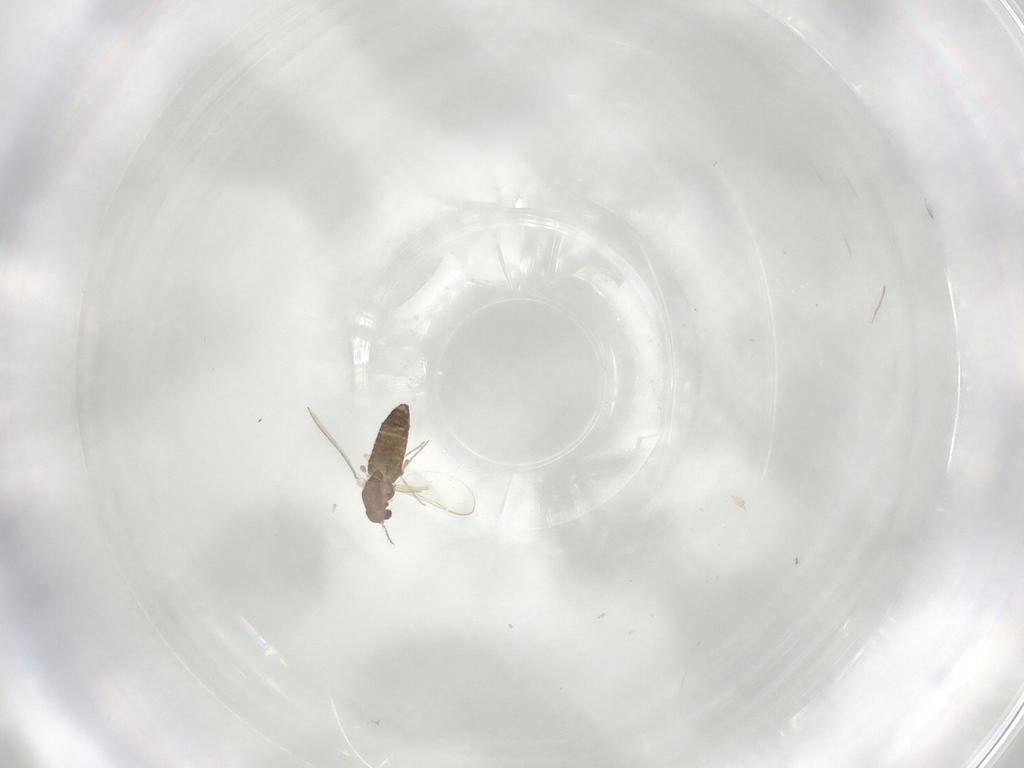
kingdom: Animalia
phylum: Arthropoda
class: Insecta
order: Diptera
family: Chironomidae
